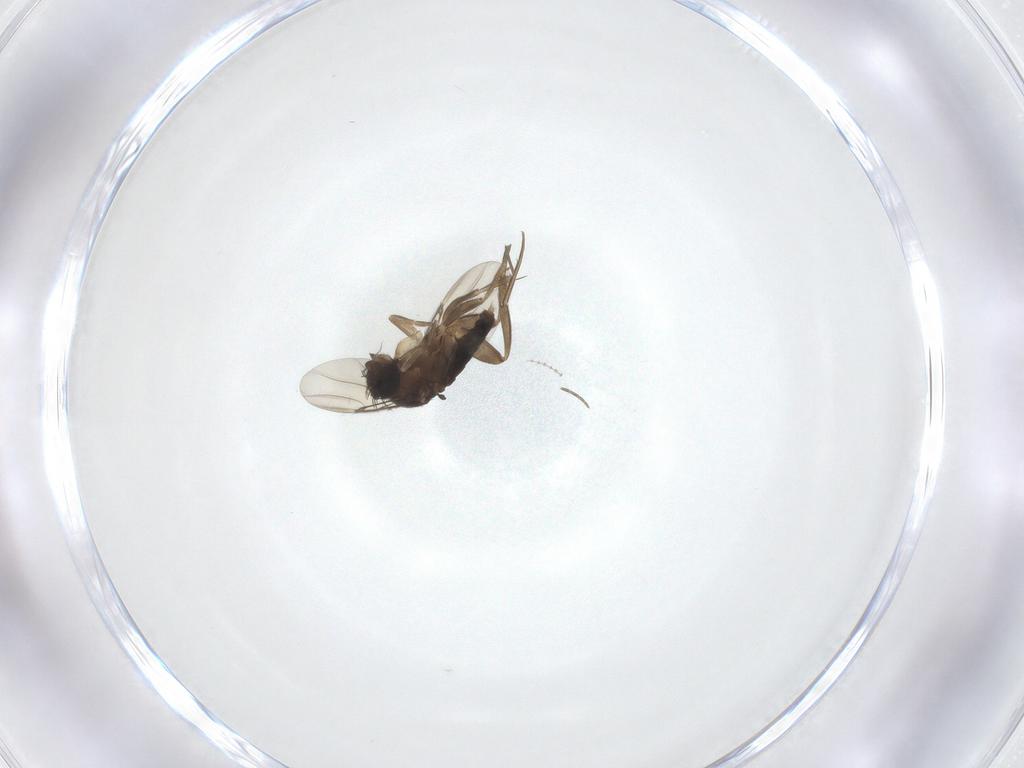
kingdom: Animalia
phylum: Arthropoda
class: Insecta
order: Diptera
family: Phoridae
